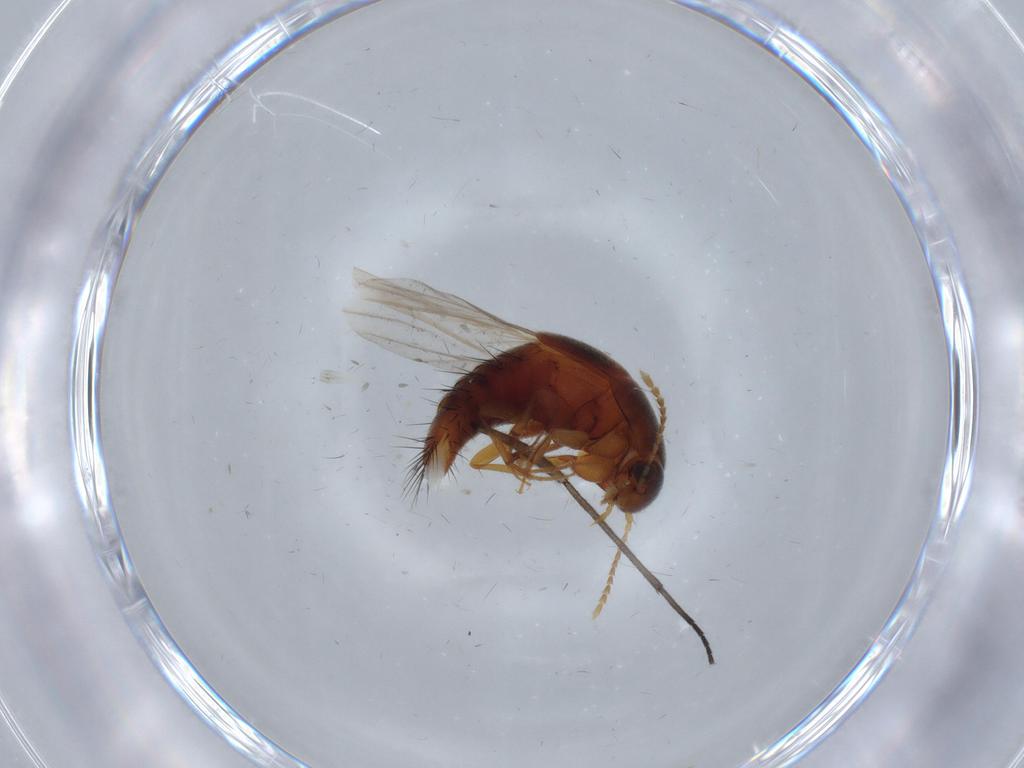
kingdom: Animalia
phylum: Arthropoda
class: Insecta
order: Coleoptera
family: Staphylinidae
